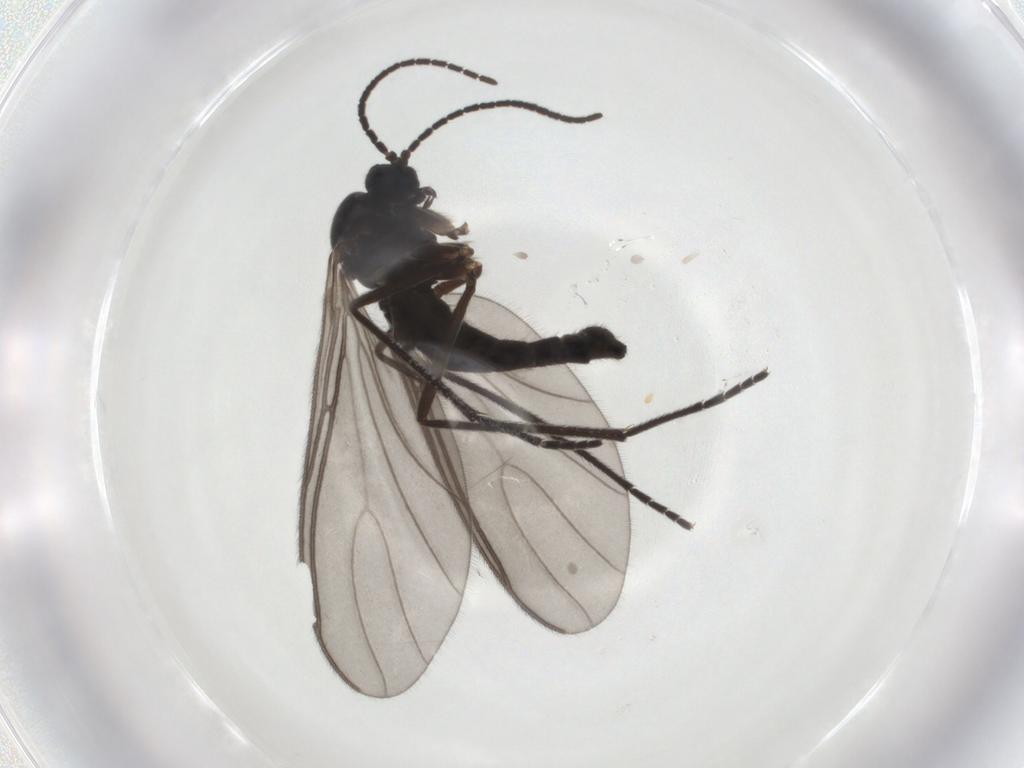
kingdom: Animalia
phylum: Arthropoda
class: Insecta
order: Diptera
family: Sciaridae
